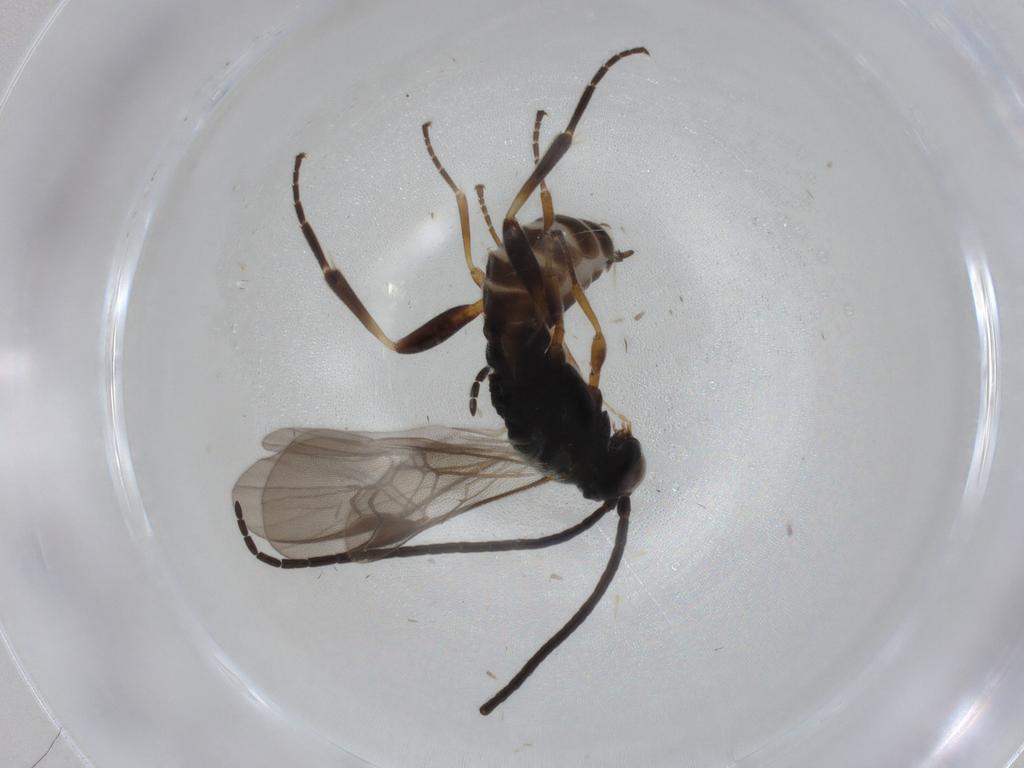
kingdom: Animalia
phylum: Arthropoda
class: Insecta
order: Hymenoptera
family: Braconidae
